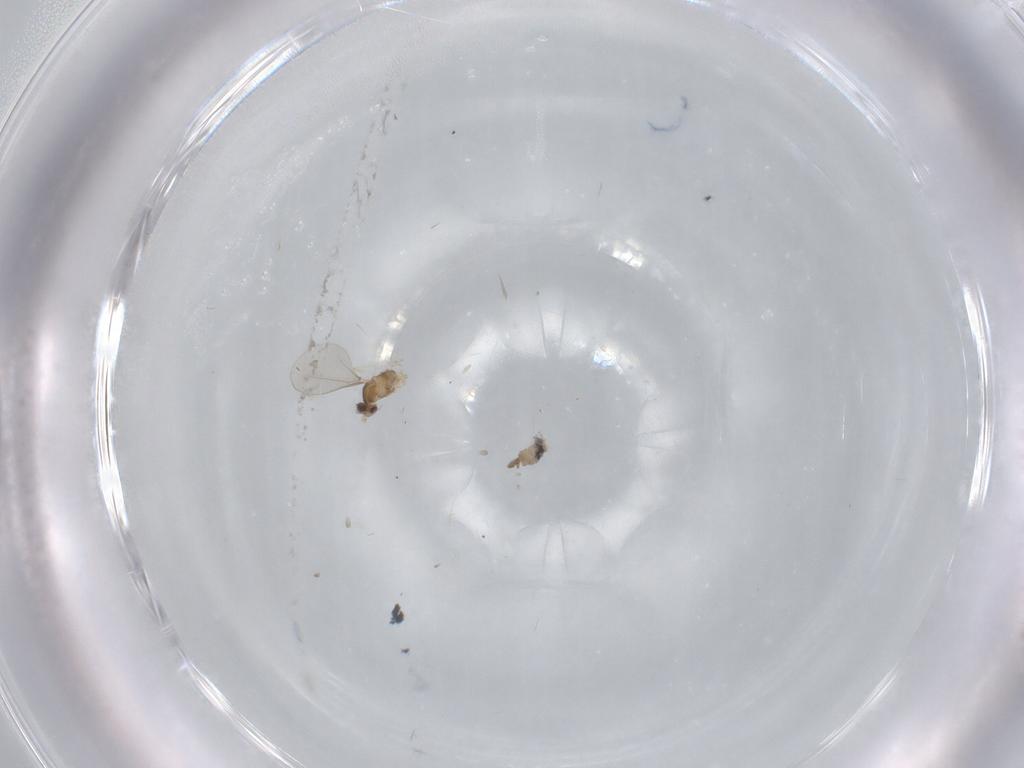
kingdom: Animalia
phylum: Arthropoda
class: Insecta
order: Diptera
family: Cecidomyiidae
